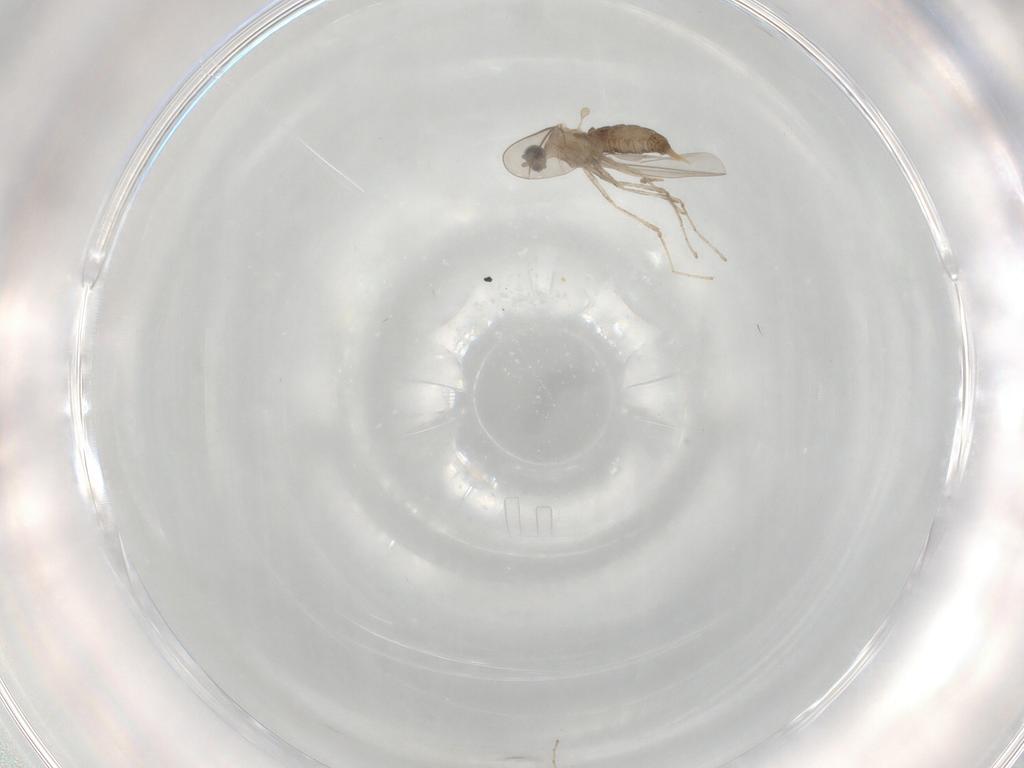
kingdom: Animalia
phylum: Arthropoda
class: Insecta
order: Diptera
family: Cecidomyiidae
